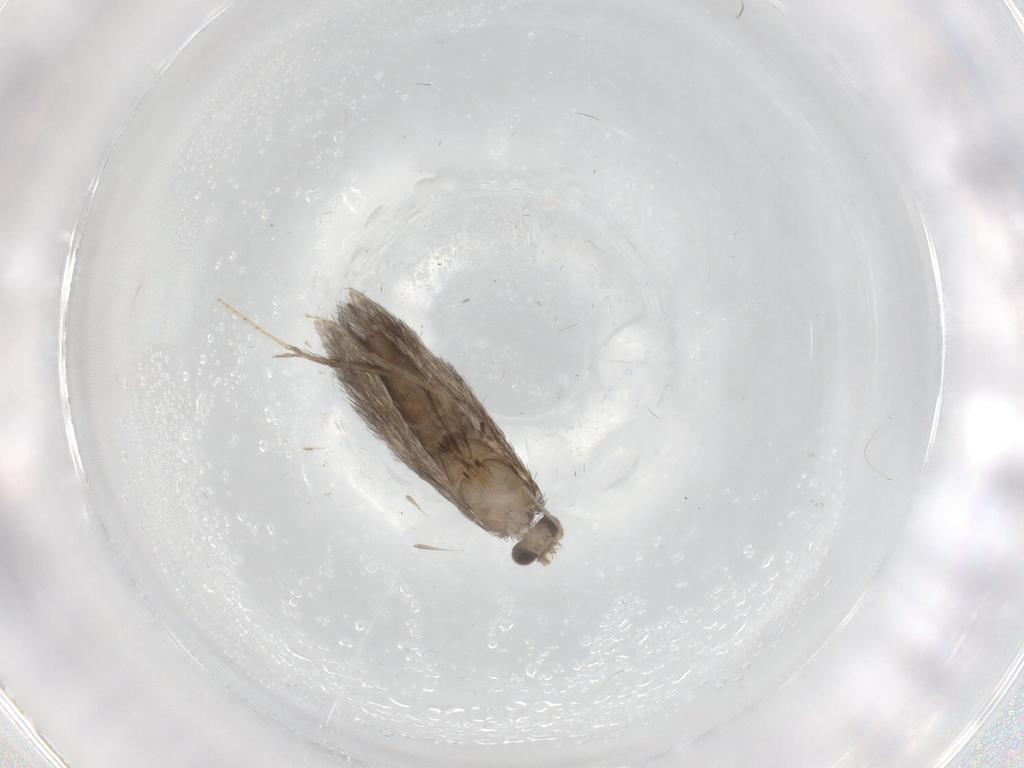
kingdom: Animalia
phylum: Arthropoda
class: Insecta
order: Trichoptera
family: Hydroptilidae
